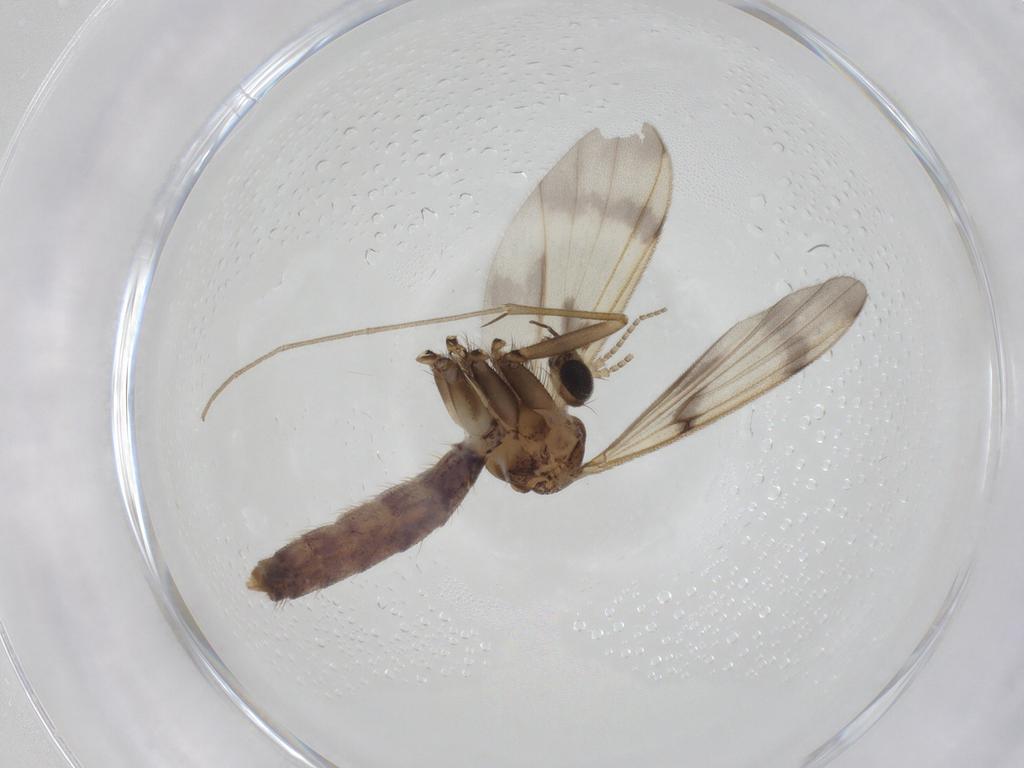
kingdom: Animalia
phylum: Arthropoda
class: Insecta
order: Diptera
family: Mycetophilidae
